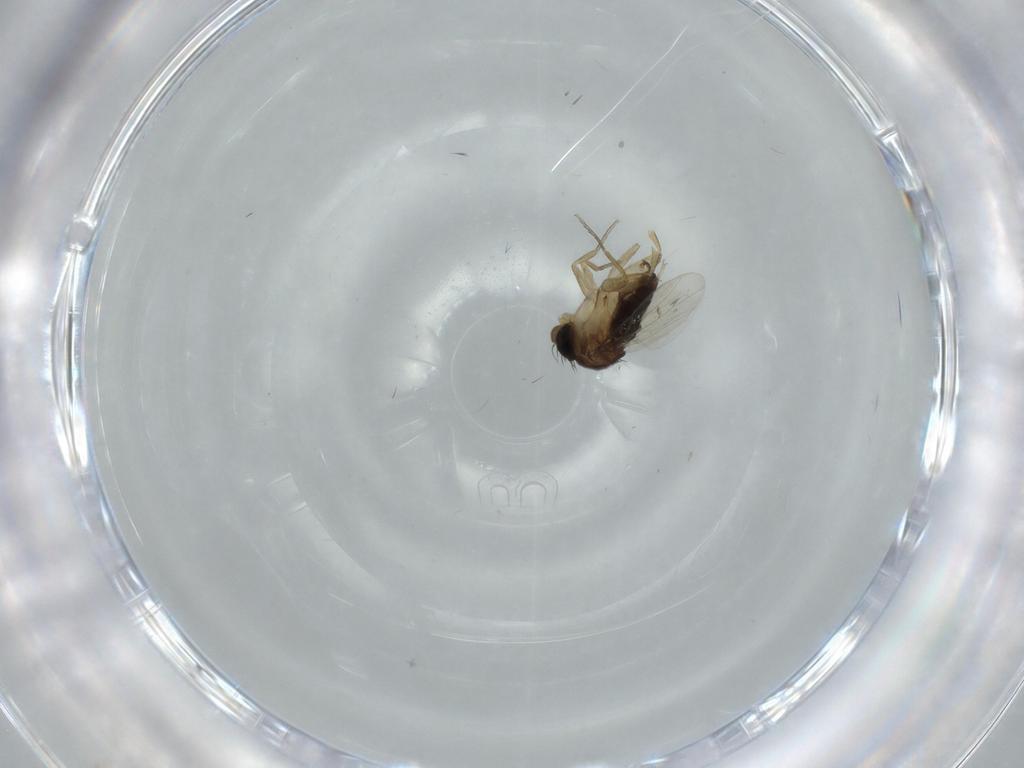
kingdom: Animalia
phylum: Arthropoda
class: Insecta
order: Diptera
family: Phoridae
